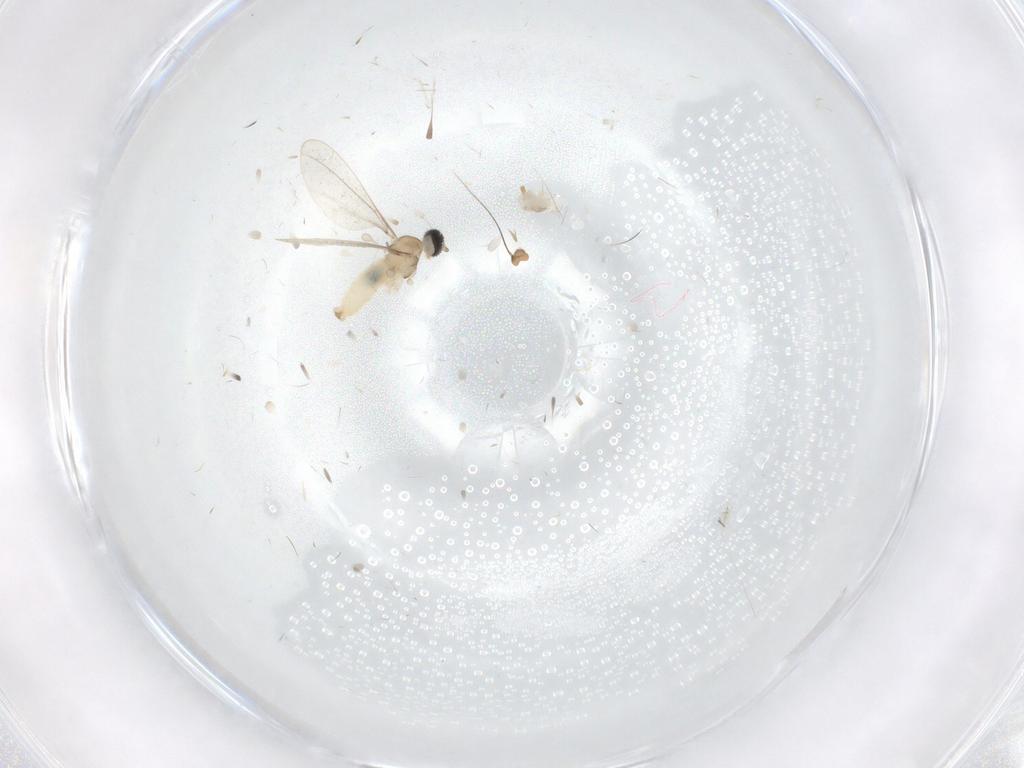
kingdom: Animalia
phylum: Arthropoda
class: Insecta
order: Diptera
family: Cecidomyiidae
